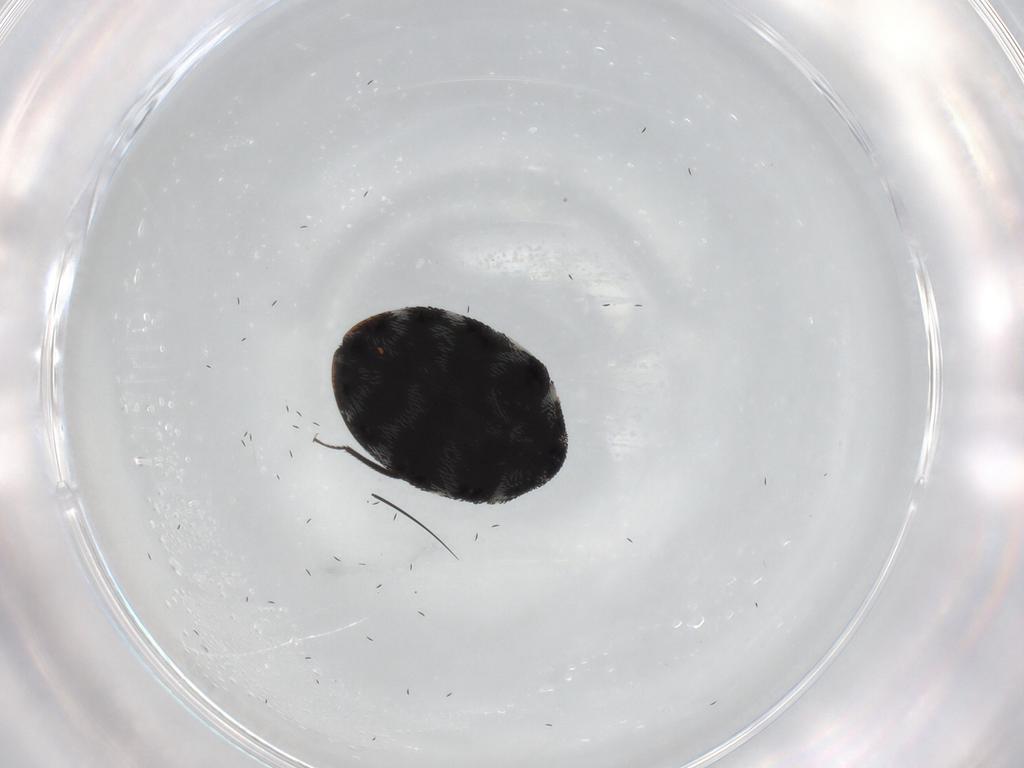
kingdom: Animalia
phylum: Arthropoda
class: Insecta
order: Coleoptera
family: Dermestidae
